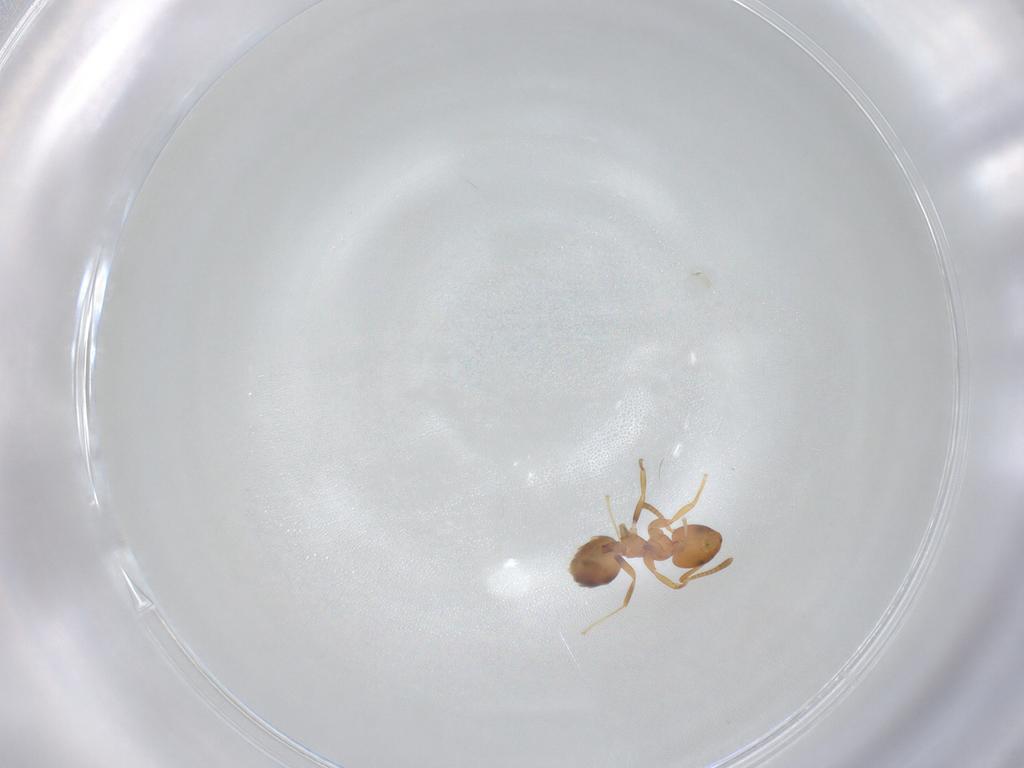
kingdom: Animalia
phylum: Arthropoda
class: Insecta
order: Hymenoptera
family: Formicidae
